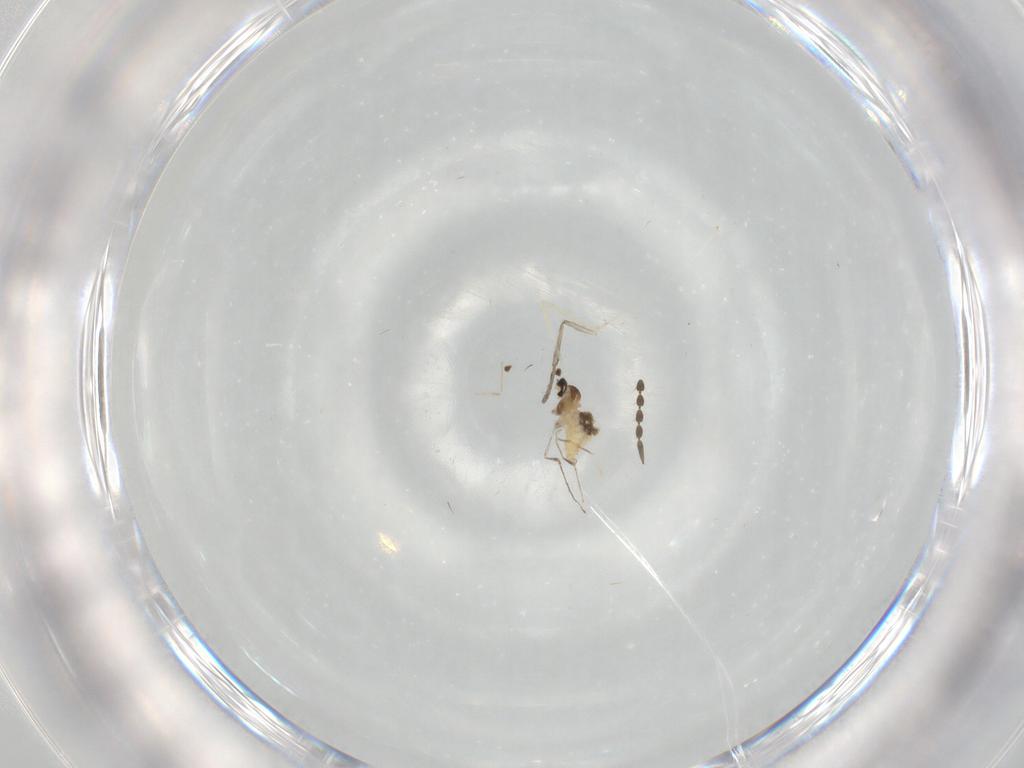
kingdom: Animalia
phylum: Arthropoda
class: Insecta
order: Diptera
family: Cecidomyiidae
